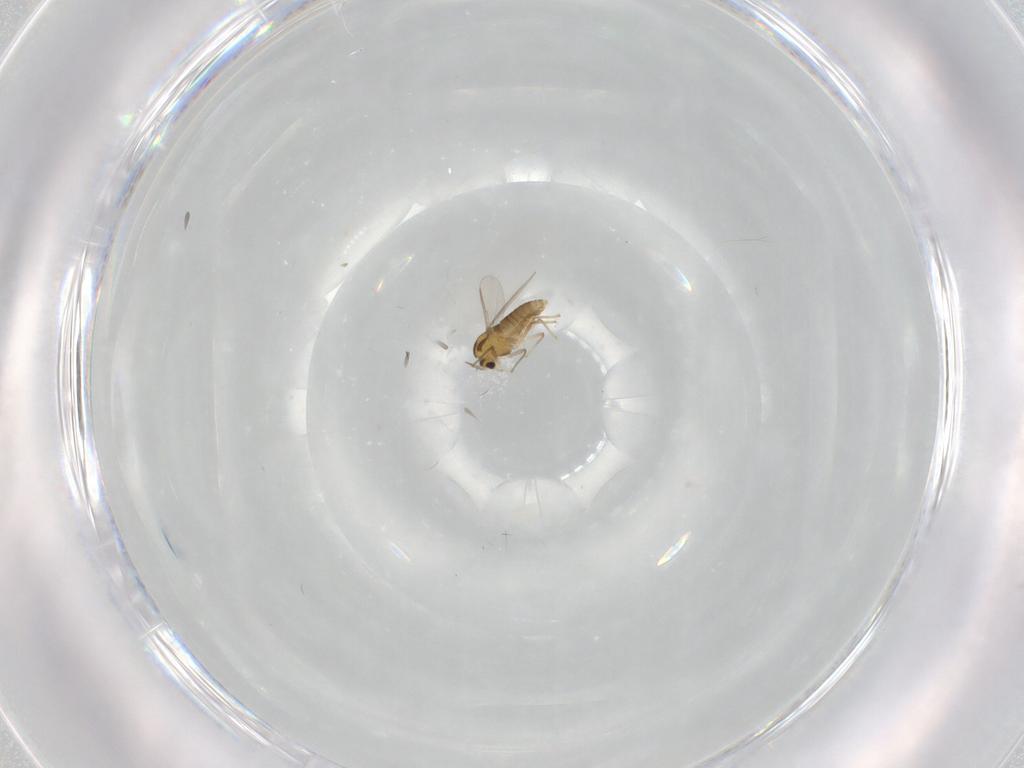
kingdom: Animalia
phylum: Arthropoda
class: Insecta
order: Diptera
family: Chironomidae
